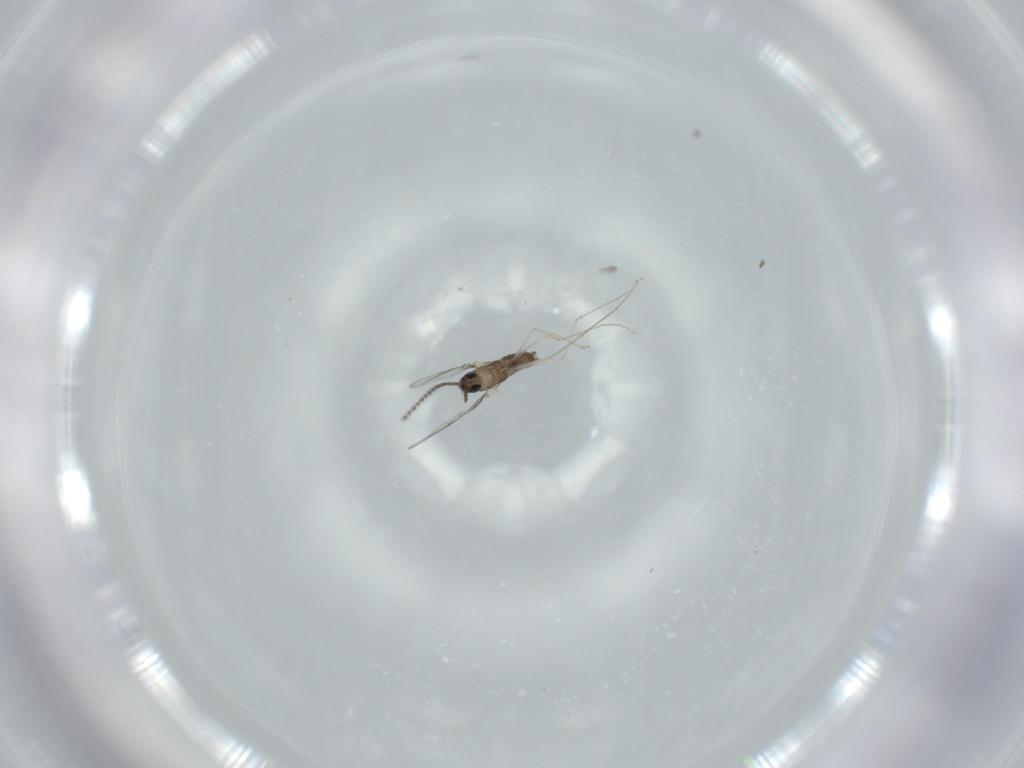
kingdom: Animalia
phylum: Arthropoda
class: Insecta
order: Diptera
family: Cecidomyiidae
